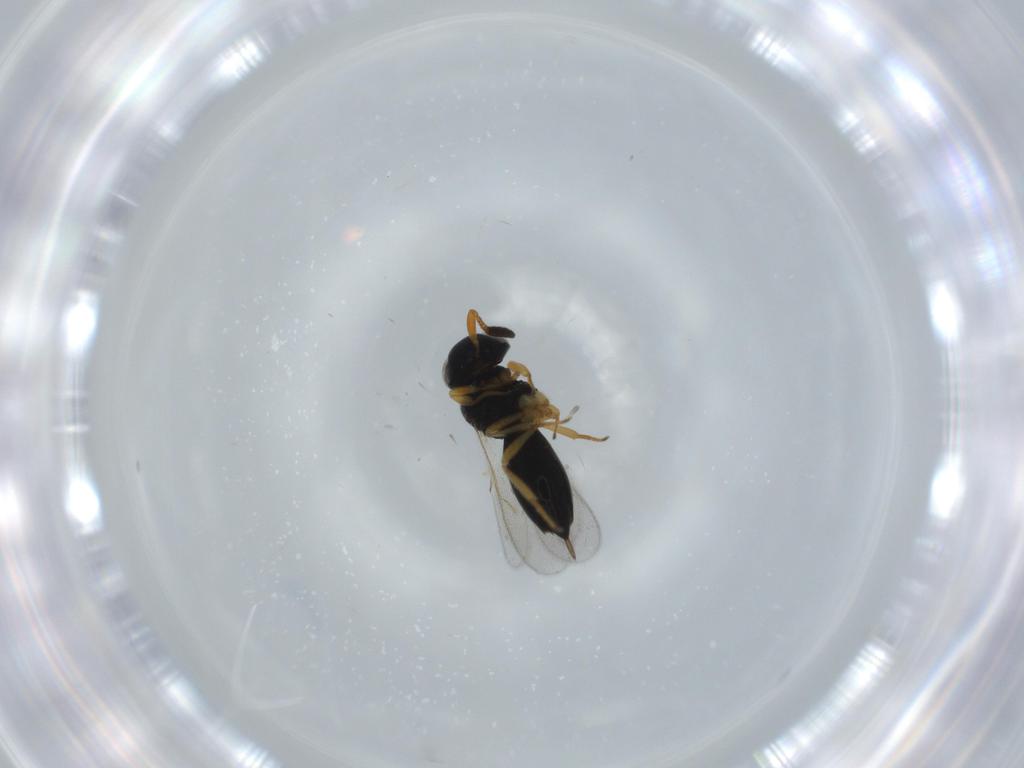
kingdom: Animalia
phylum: Arthropoda
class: Insecta
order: Hymenoptera
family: Scelionidae
